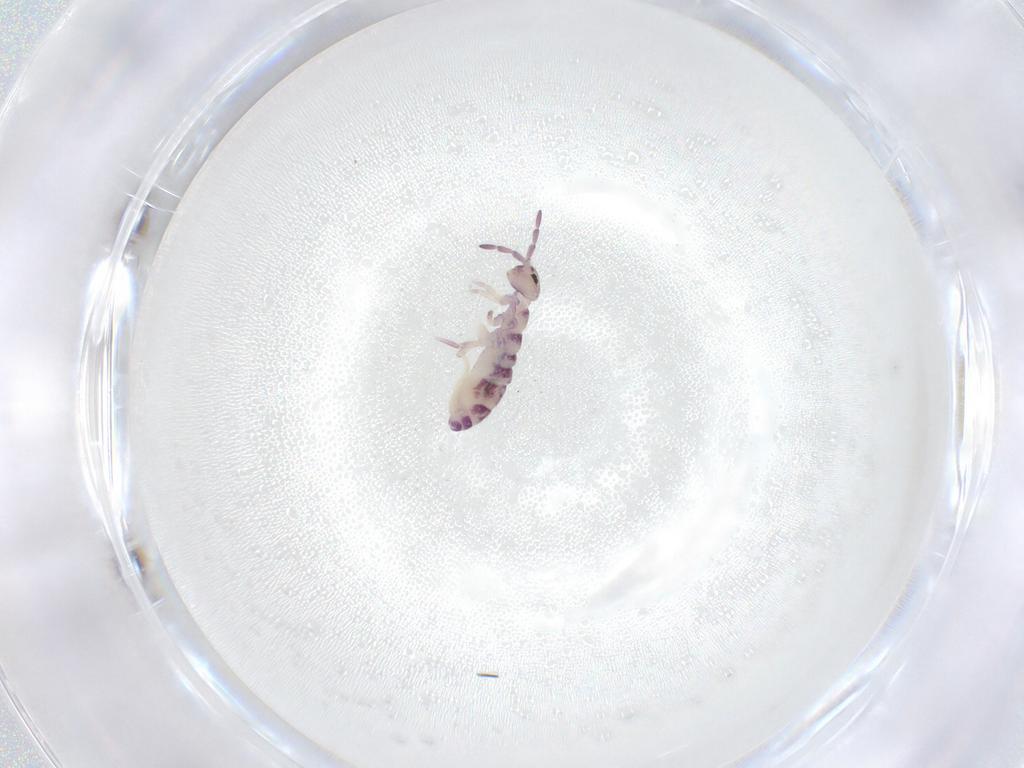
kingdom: Animalia
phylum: Arthropoda
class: Collembola
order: Entomobryomorpha
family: Isotomidae
